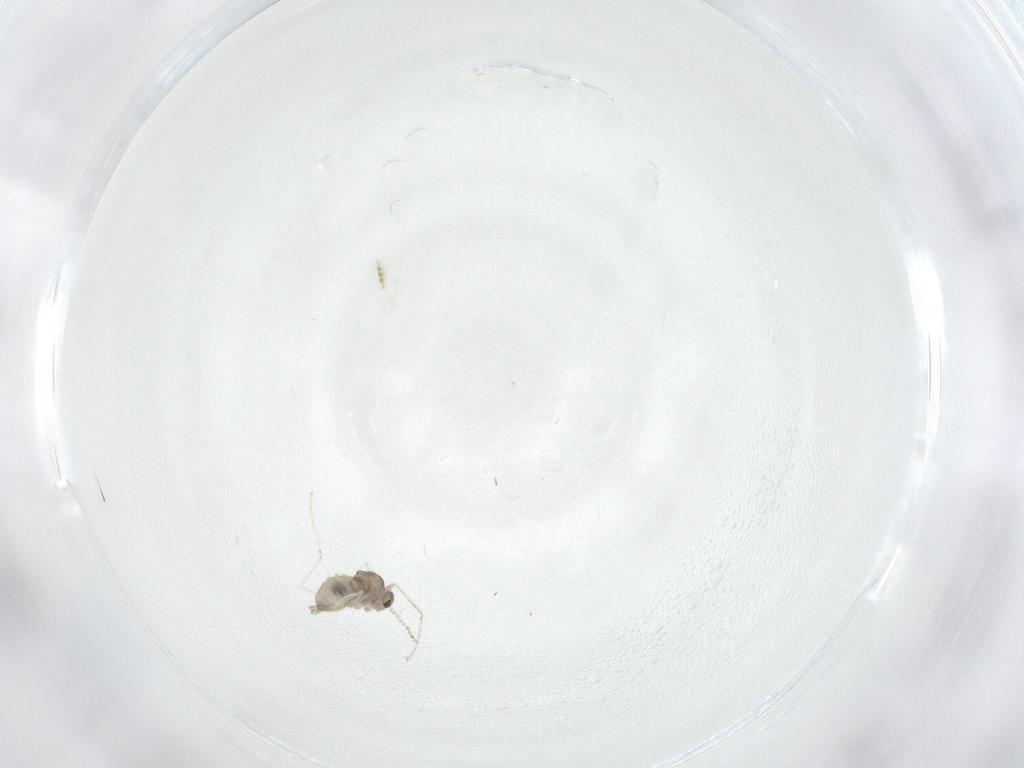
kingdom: Animalia
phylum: Arthropoda
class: Insecta
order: Diptera
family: Cecidomyiidae
